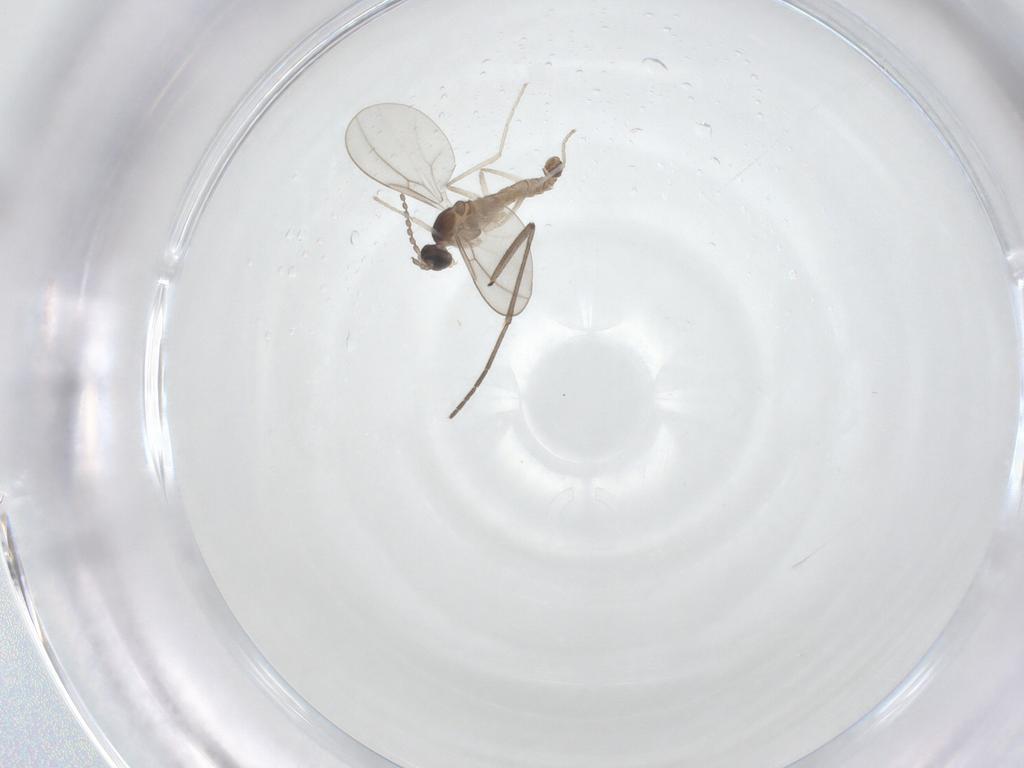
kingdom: Animalia
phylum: Arthropoda
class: Insecta
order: Diptera
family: Cecidomyiidae
